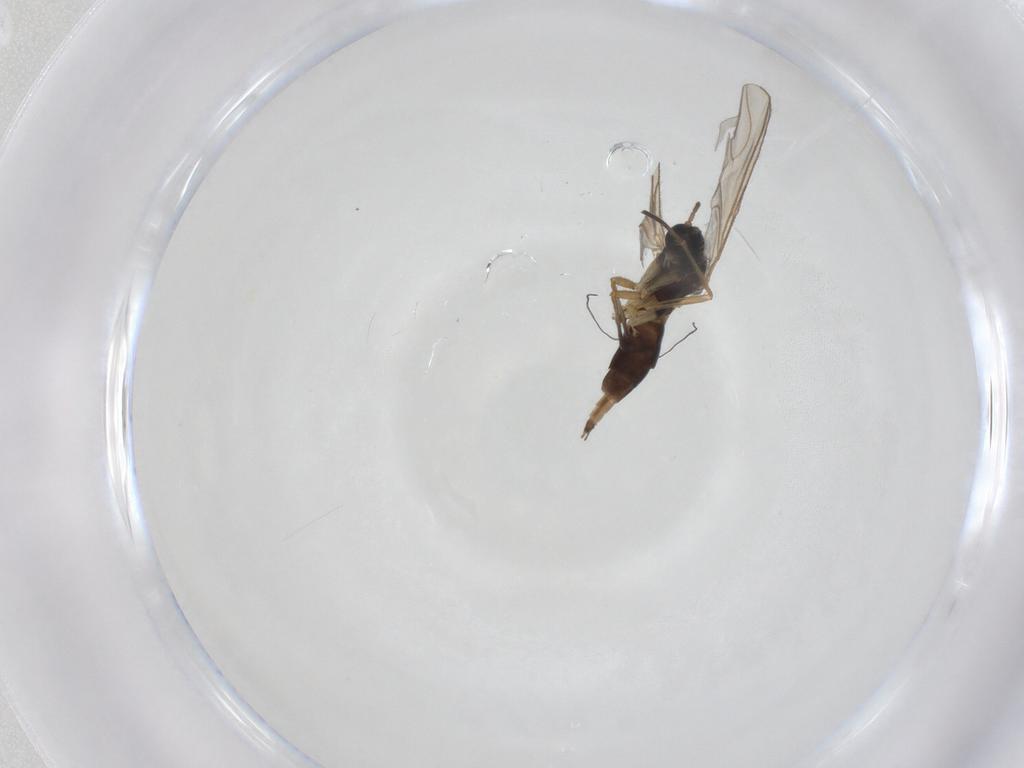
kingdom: Animalia
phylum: Arthropoda
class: Insecta
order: Diptera
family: Sciaridae
